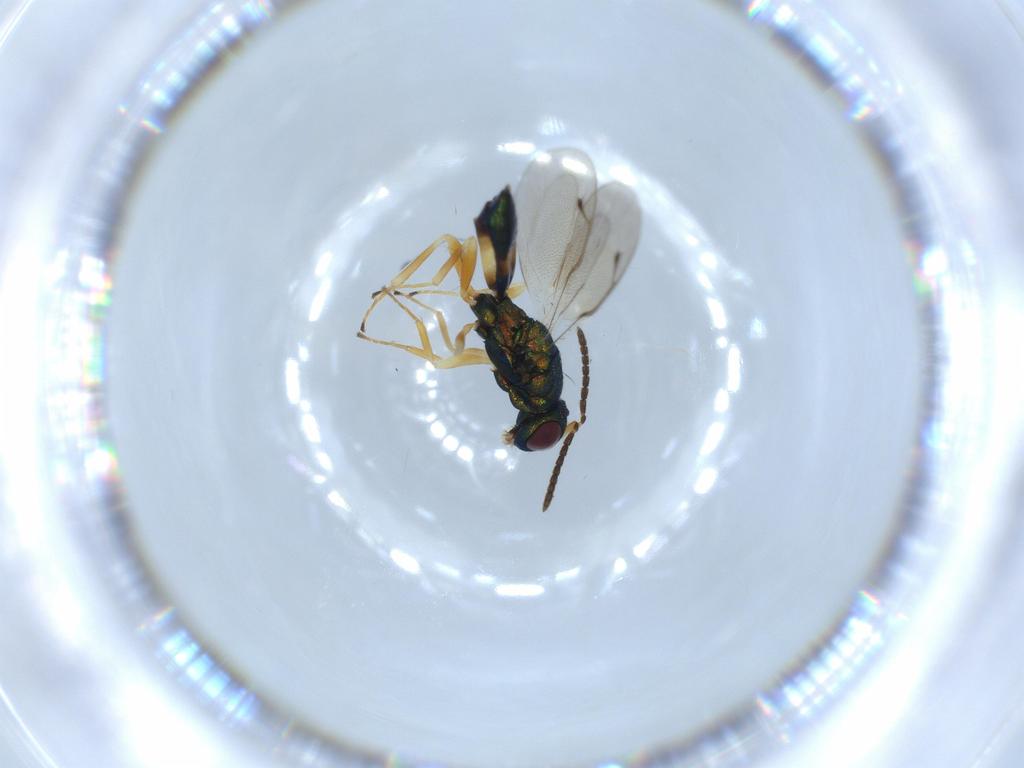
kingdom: Animalia
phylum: Arthropoda
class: Insecta
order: Hymenoptera
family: Pteromalidae
